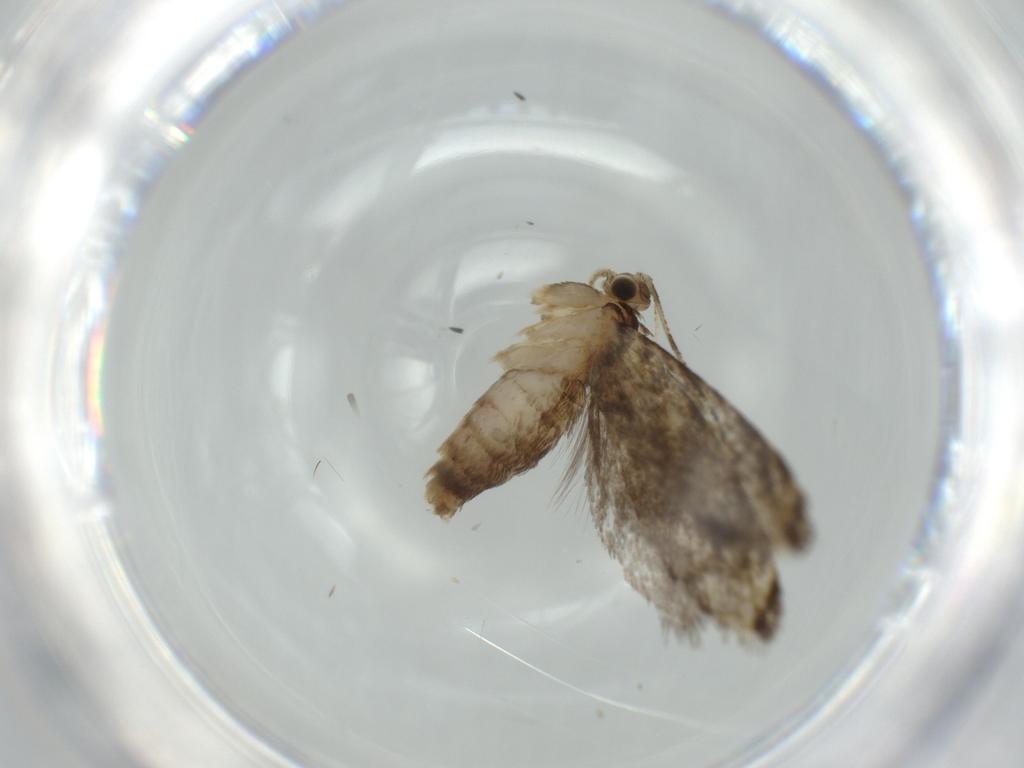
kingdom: Animalia
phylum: Arthropoda
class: Insecta
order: Lepidoptera
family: Tineidae
